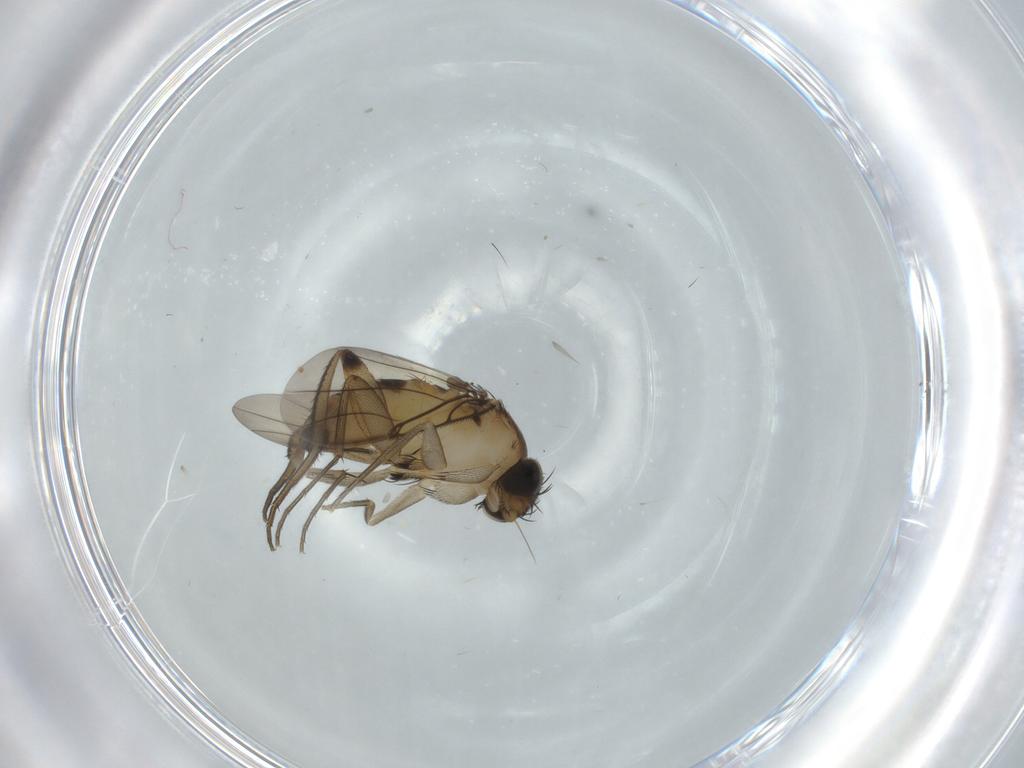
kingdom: Animalia
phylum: Arthropoda
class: Insecta
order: Diptera
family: Phoridae
